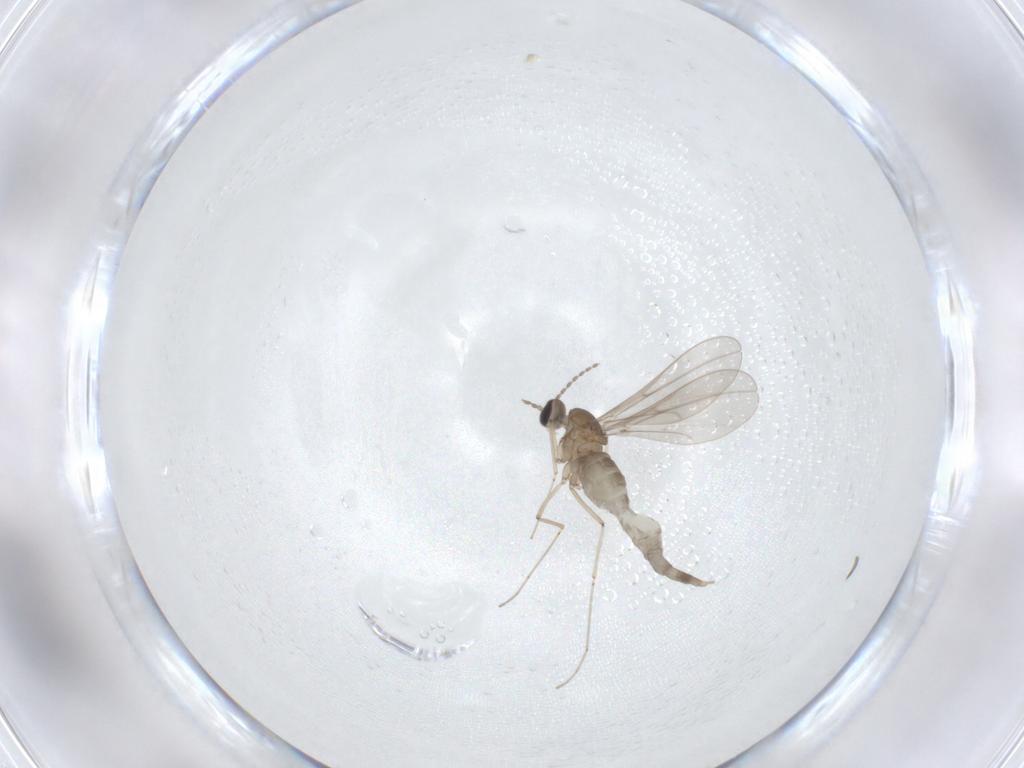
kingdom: Animalia
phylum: Arthropoda
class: Insecta
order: Diptera
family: Cecidomyiidae
